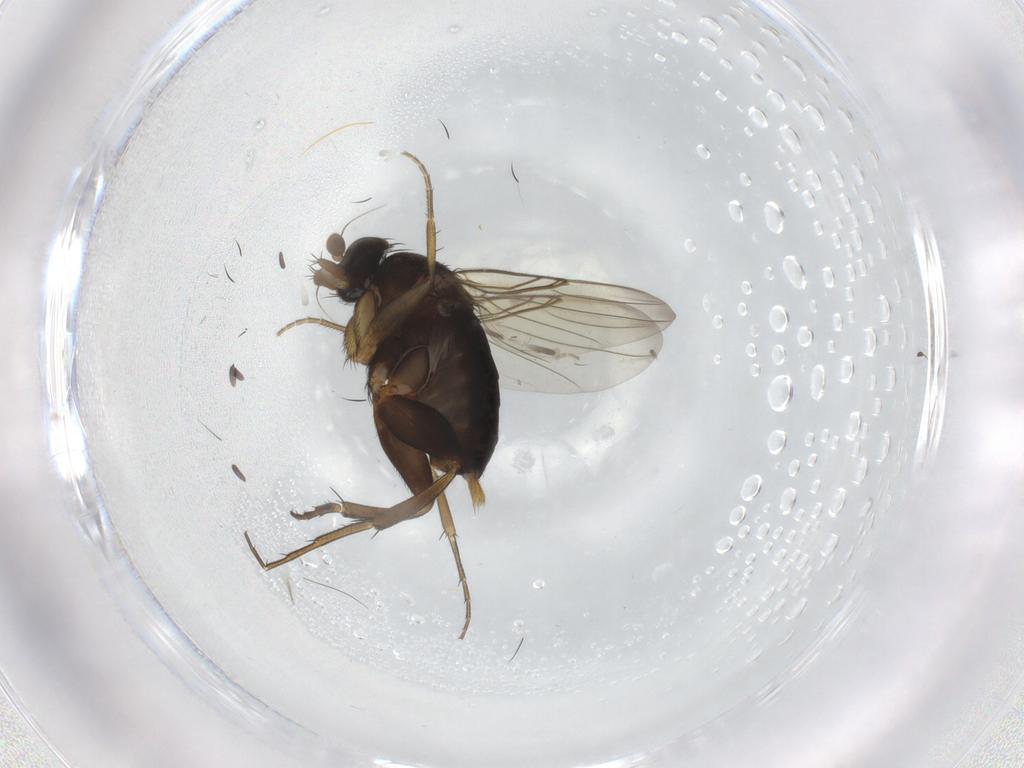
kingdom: Animalia
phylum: Arthropoda
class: Insecta
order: Diptera
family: Phoridae
